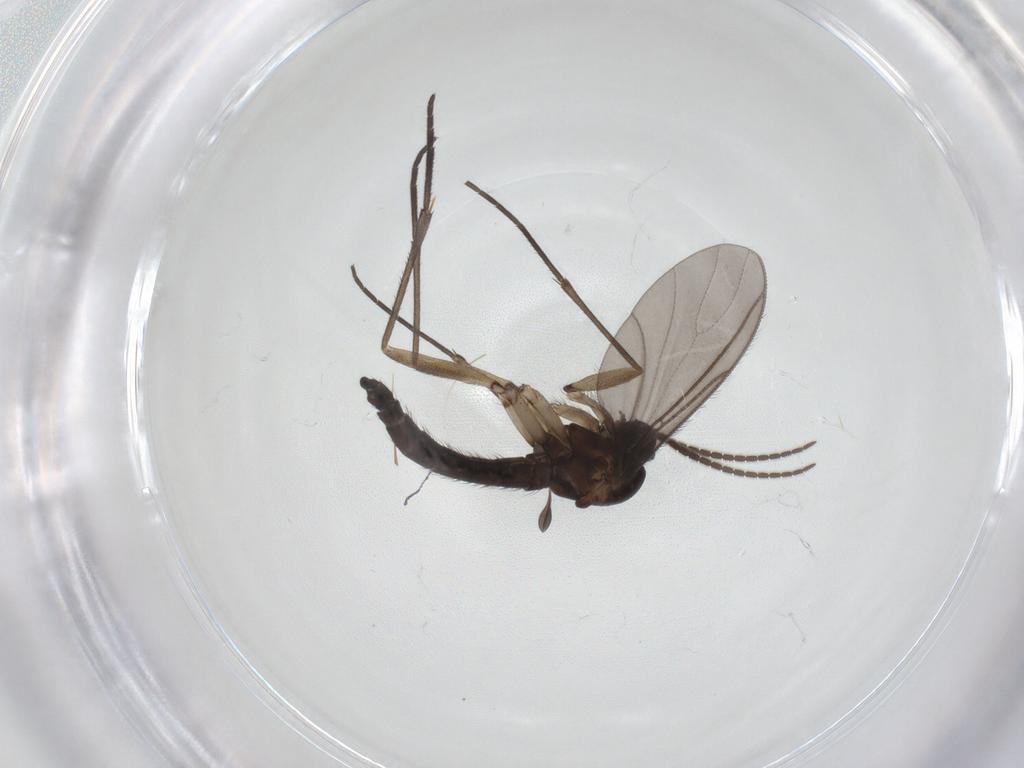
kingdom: Animalia
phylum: Arthropoda
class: Insecta
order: Diptera
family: Sciaridae
